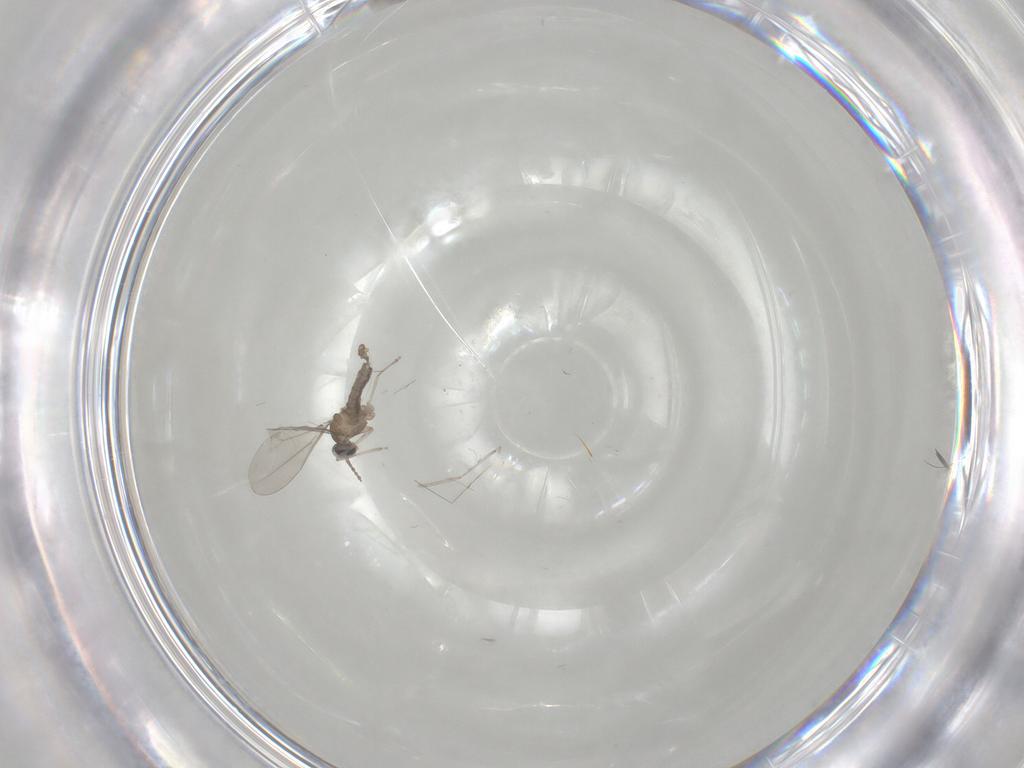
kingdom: Animalia
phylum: Arthropoda
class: Insecta
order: Diptera
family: Cecidomyiidae
